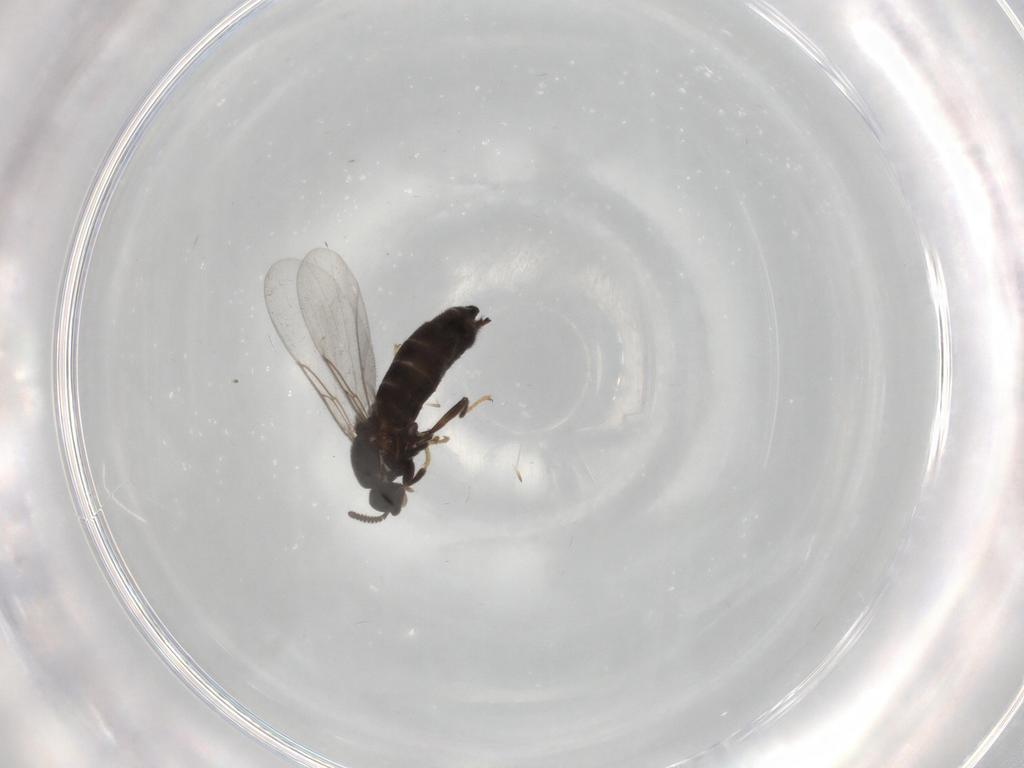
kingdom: Animalia
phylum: Arthropoda
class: Insecta
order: Diptera
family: Scatopsidae
